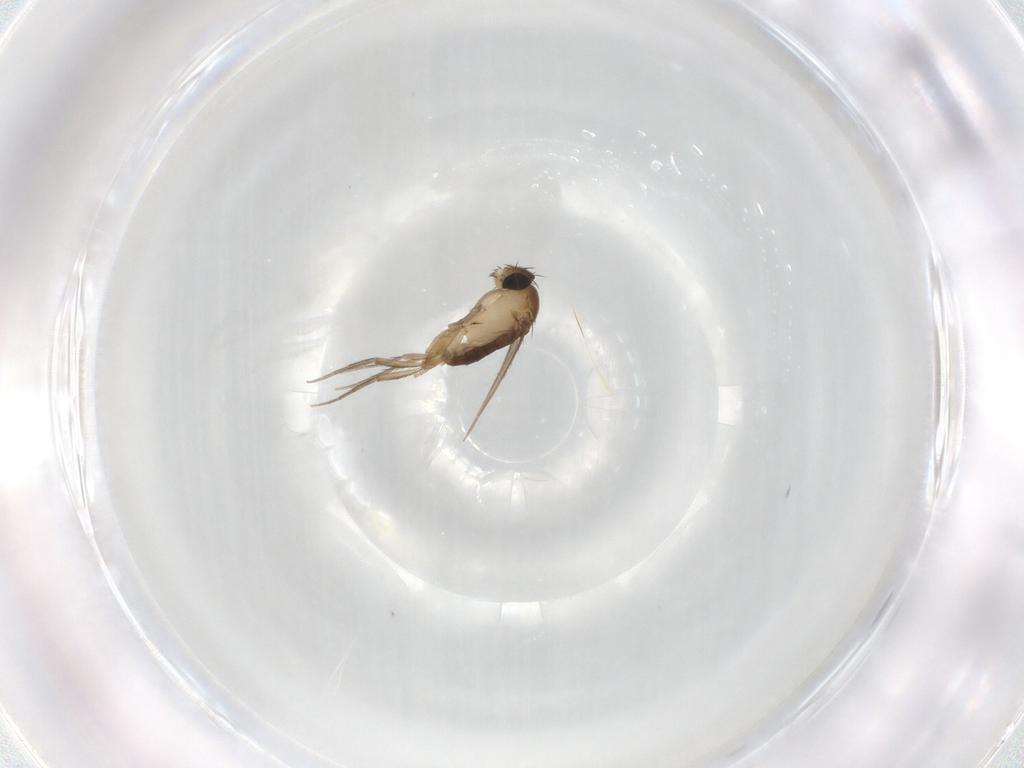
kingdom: Animalia
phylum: Arthropoda
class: Insecta
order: Diptera
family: Phoridae
